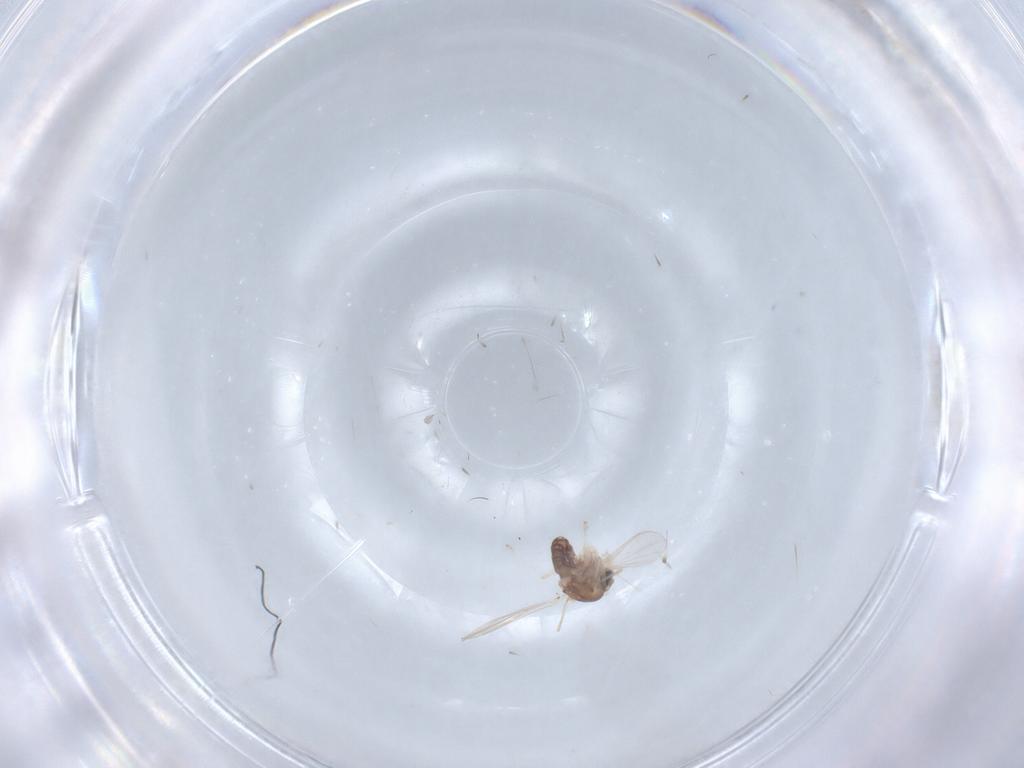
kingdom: Animalia
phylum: Arthropoda
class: Insecta
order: Diptera
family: Chironomidae
